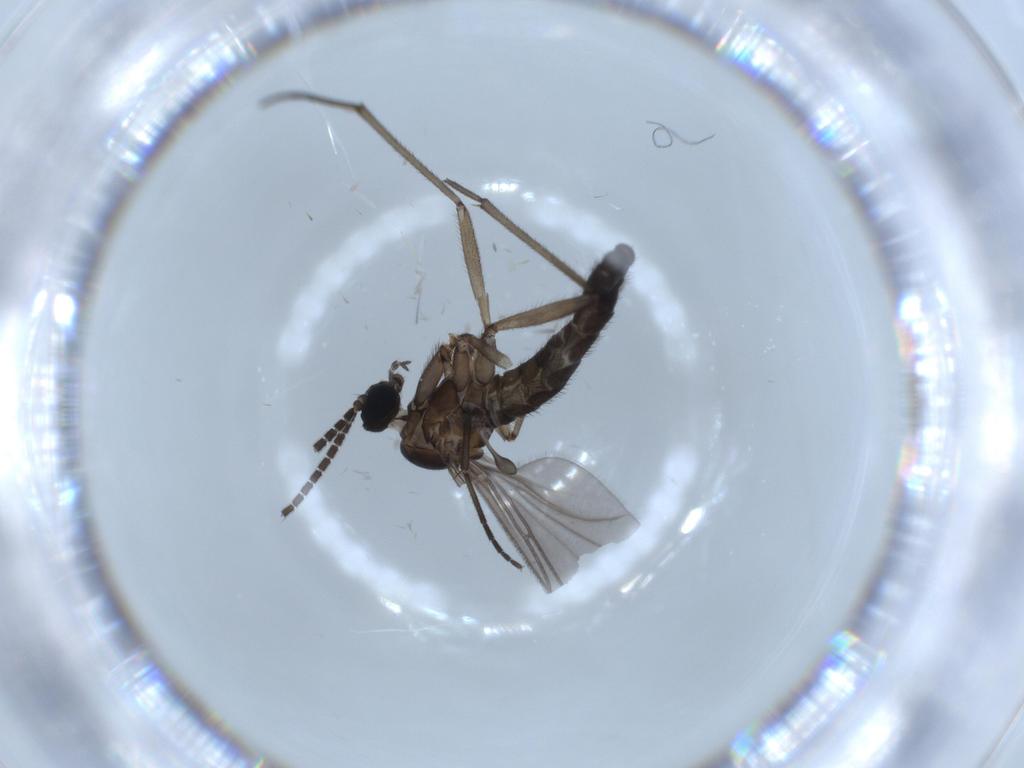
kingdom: Animalia
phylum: Arthropoda
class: Insecta
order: Diptera
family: Sciaridae
